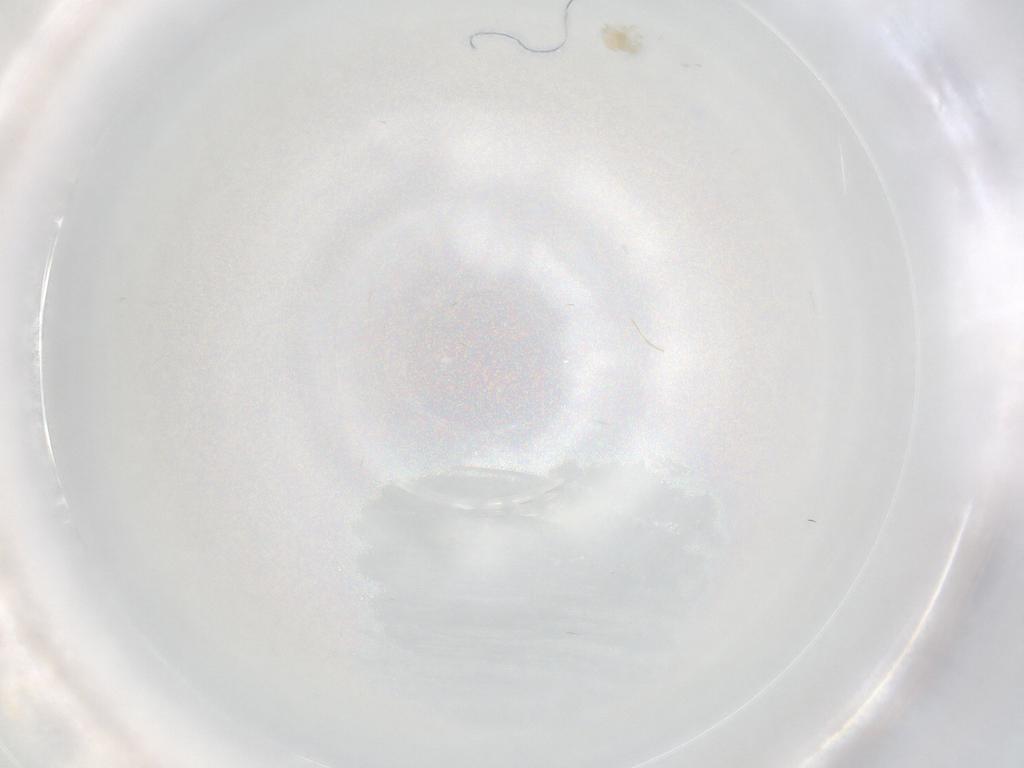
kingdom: Animalia
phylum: Arthropoda
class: Arachnida
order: Trombidiformes
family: Eupodidae
